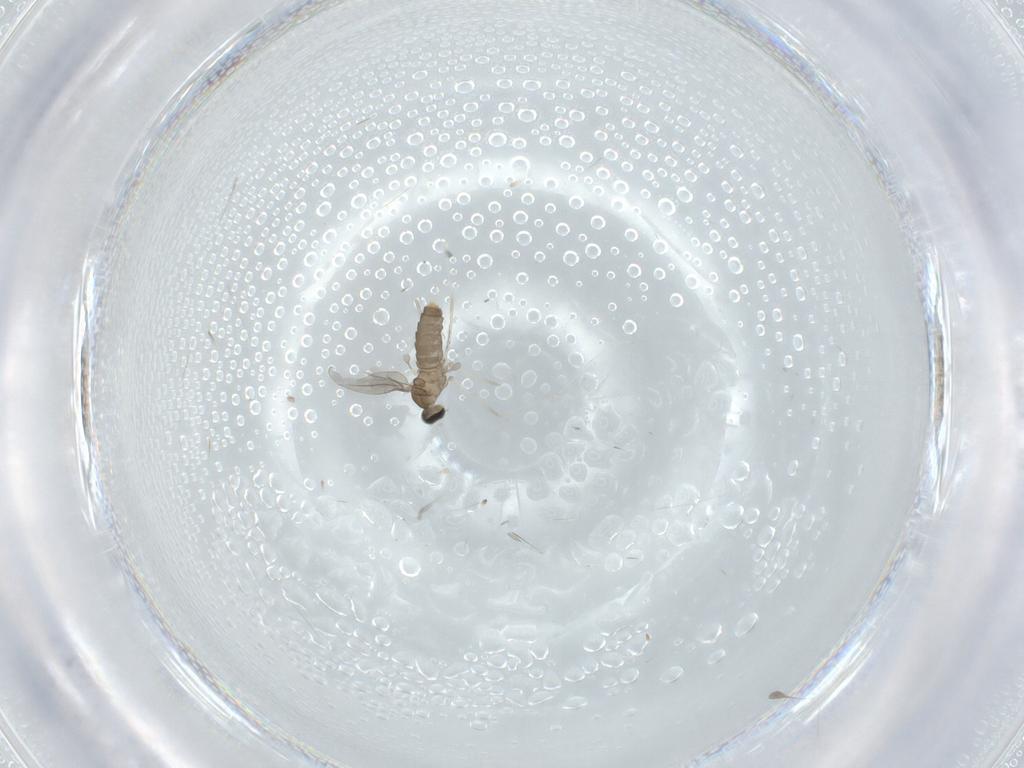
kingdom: Animalia
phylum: Arthropoda
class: Insecta
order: Diptera
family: Cecidomyiidae
